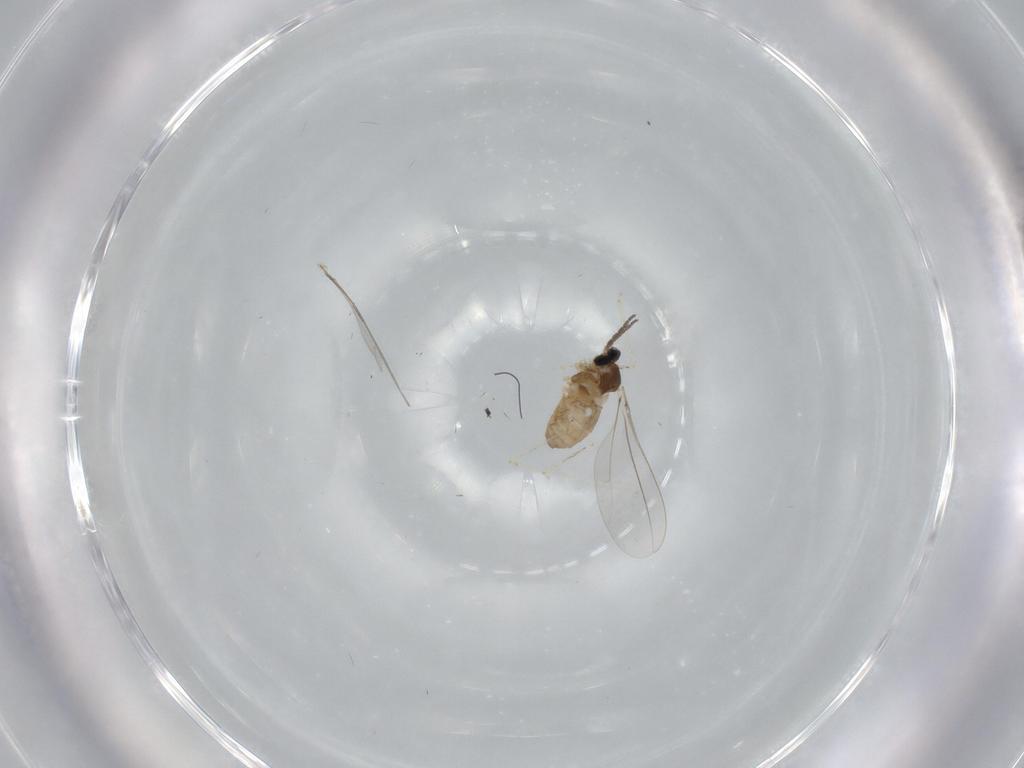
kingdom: Animalia
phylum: Arthropoda
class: Insecta
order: Diptera
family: Cecidomyiidae
